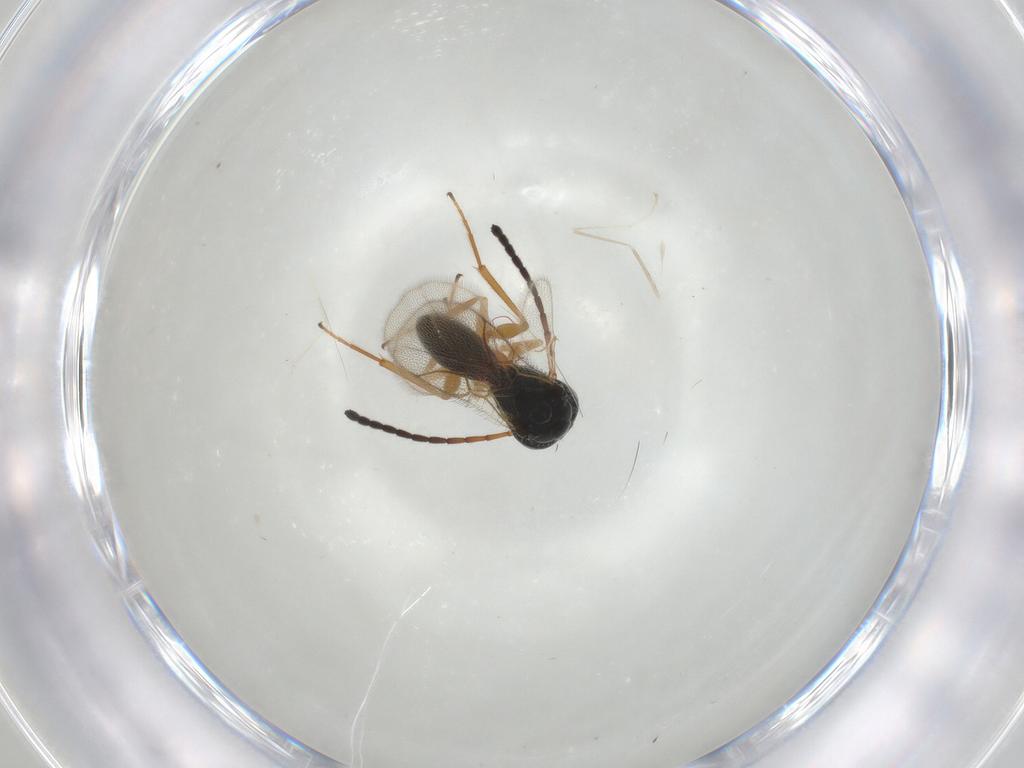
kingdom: Animalia
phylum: Arthropoda
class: Insecta
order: Hymenoptera
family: Figitidae
